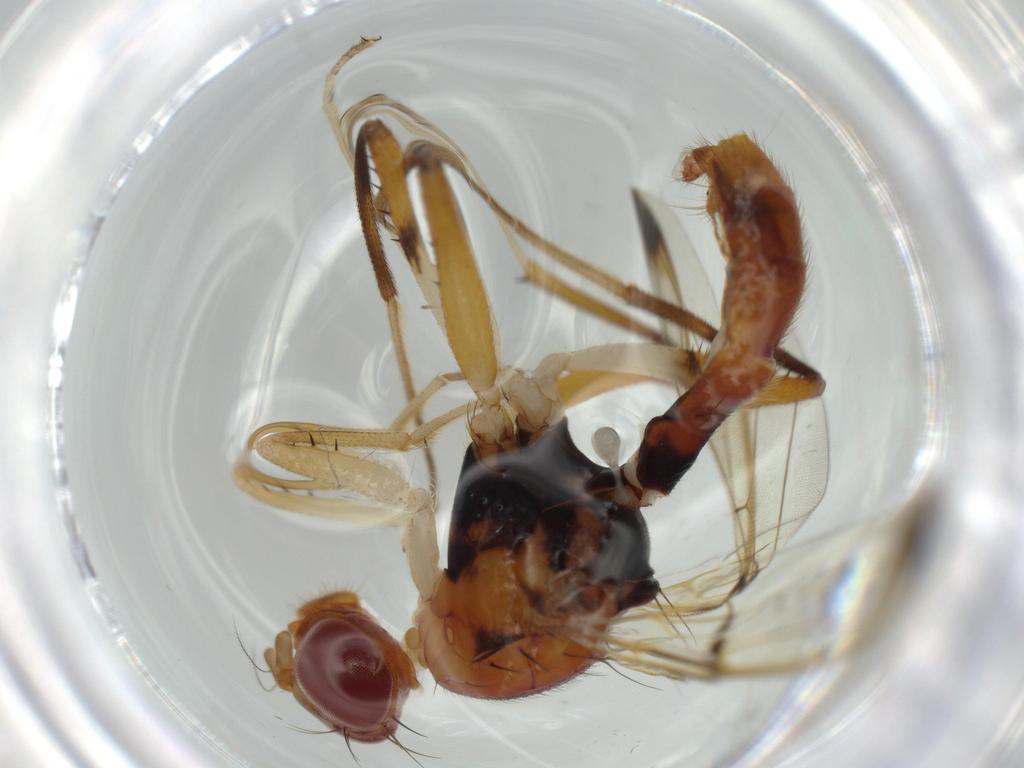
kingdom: Animalia
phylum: Arthropoda
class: Insecta
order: Diptera
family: Richardiidae
